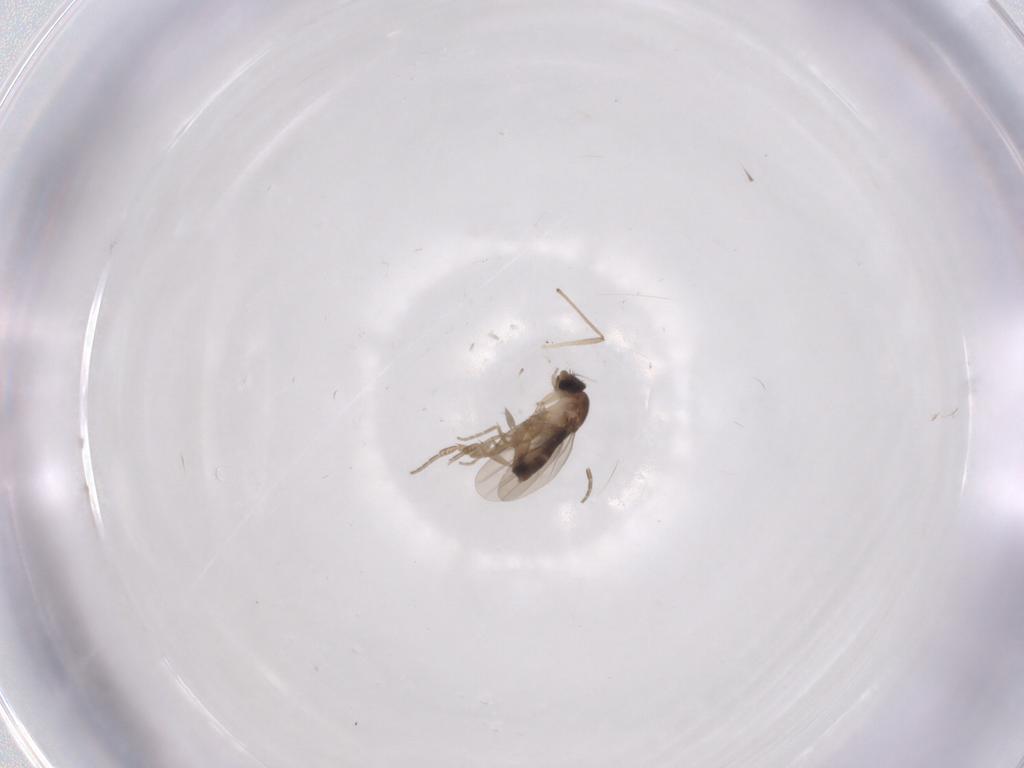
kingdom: Animalia
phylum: Arthropoda
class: Insecta
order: Diptera
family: Phoridae
